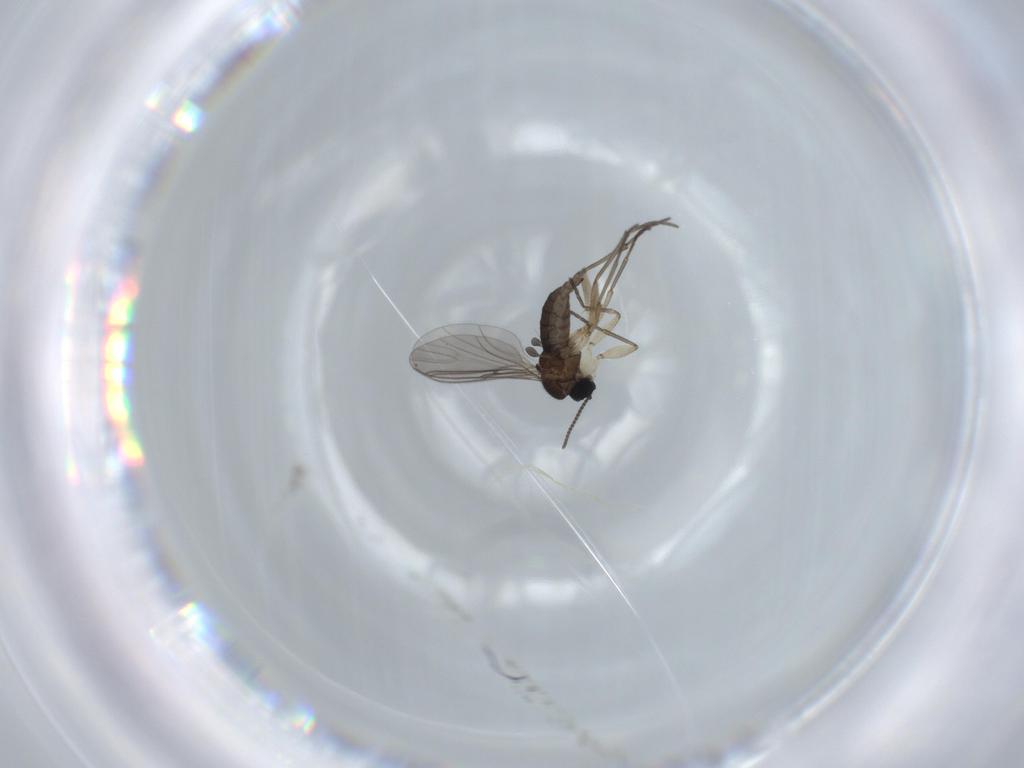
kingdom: Animalia
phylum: Arthropoda
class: Insecta
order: Diptera
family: Sciaridae
